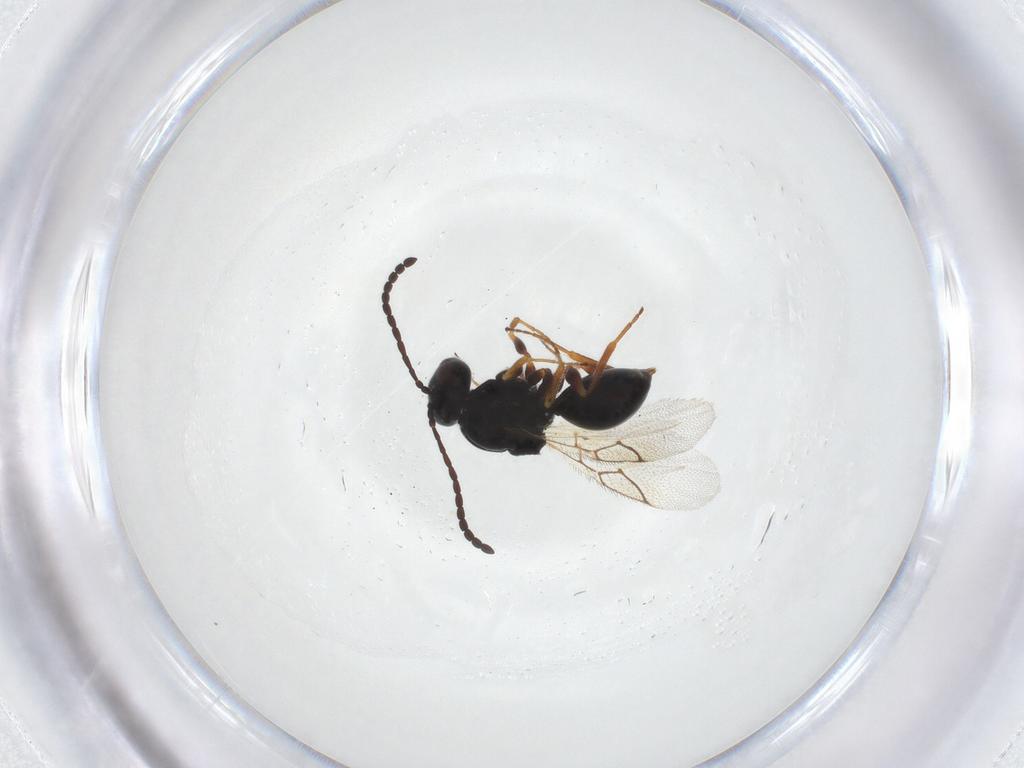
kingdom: Animalia
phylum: Arthropoda
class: Insecta
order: Hymenoptera
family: Figitidae
